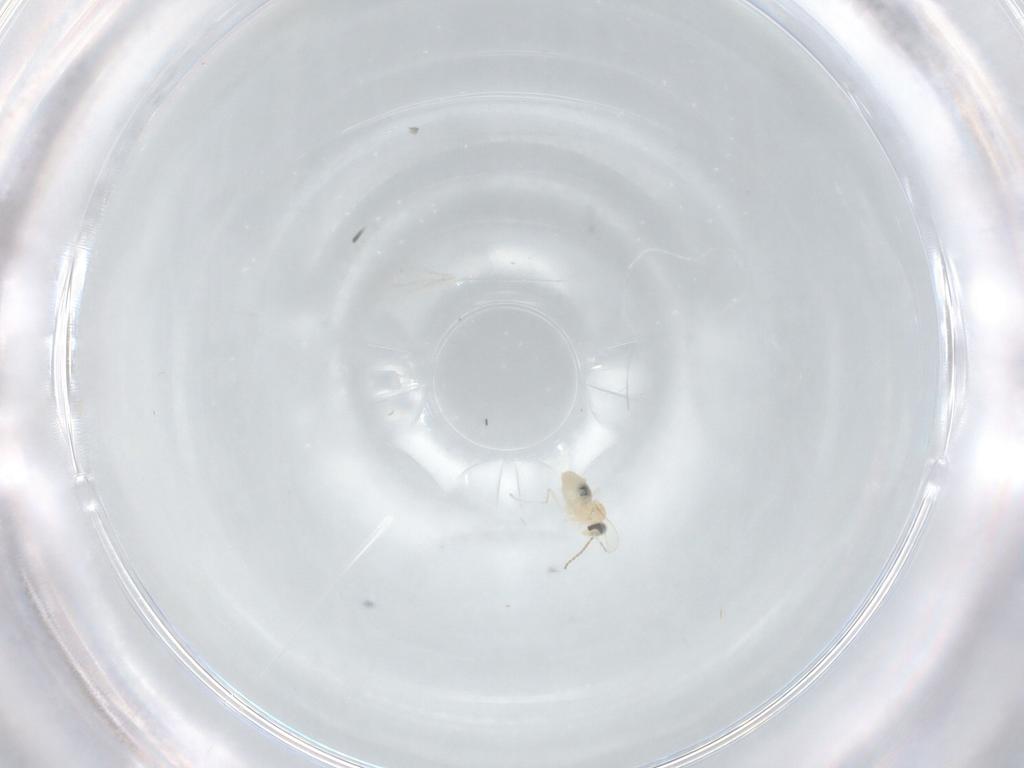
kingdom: Animalia
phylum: Arthropoda
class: Insecta
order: Diptera
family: Cecidomyiidae
